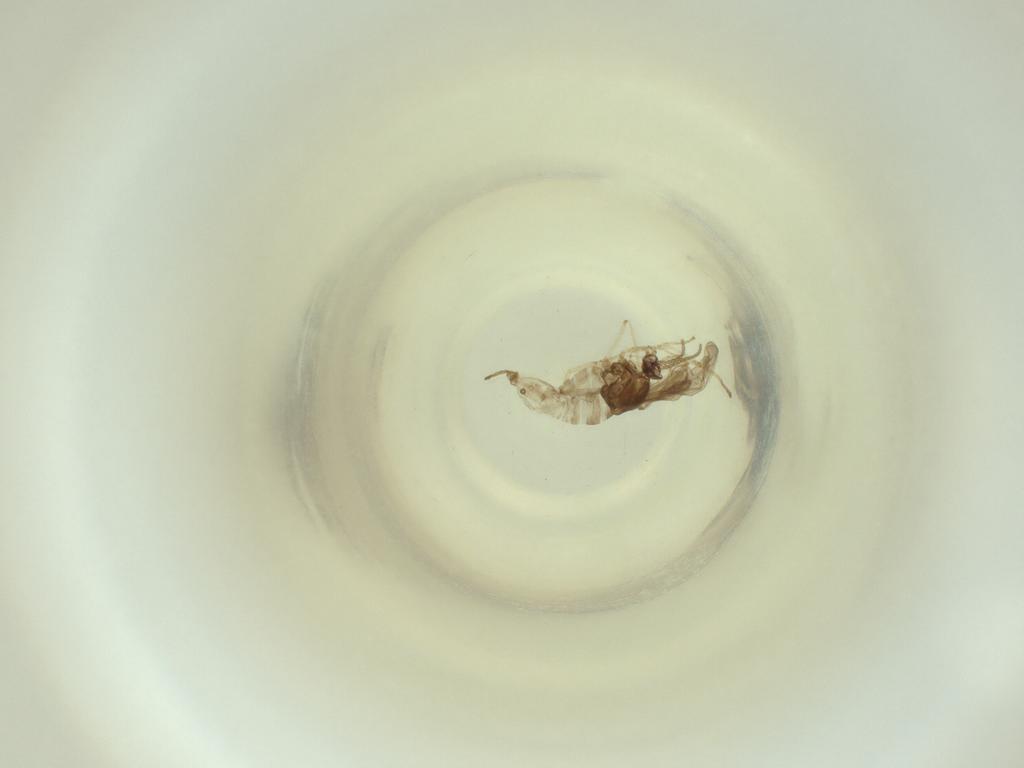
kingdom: Animalia
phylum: Arthropoda
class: Insecta
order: Diptera
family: Cecidomyiidae
